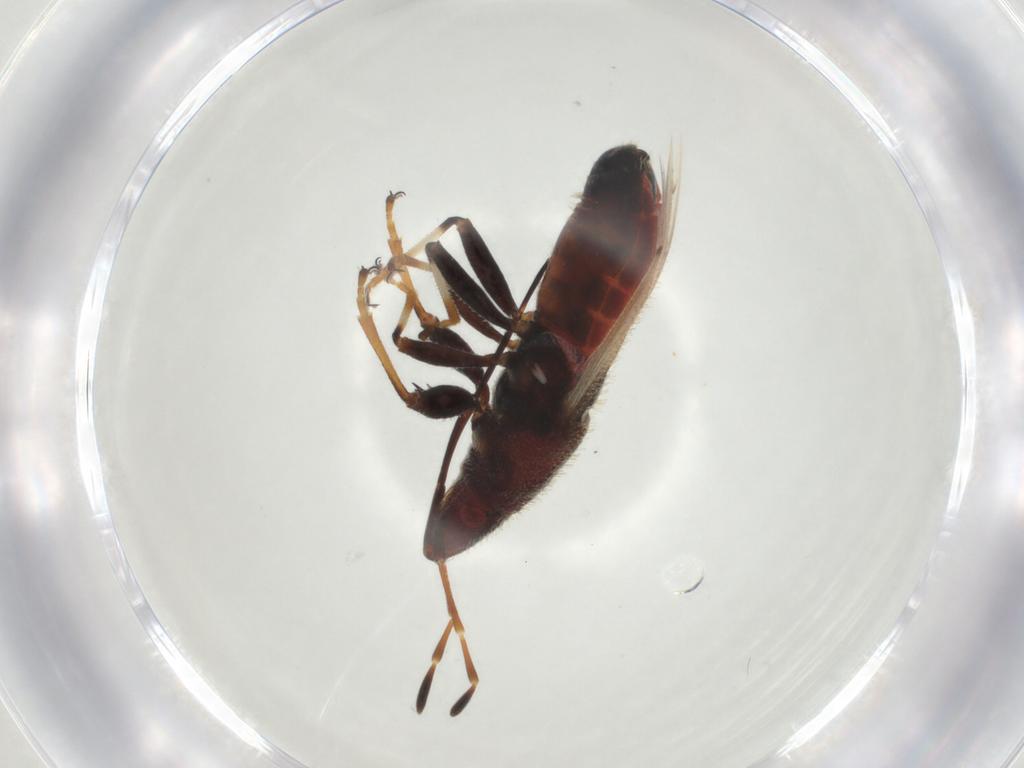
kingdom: Animalia
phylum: Arthropoda
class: Insecta
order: Hemiptera
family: Oxycarenidae
